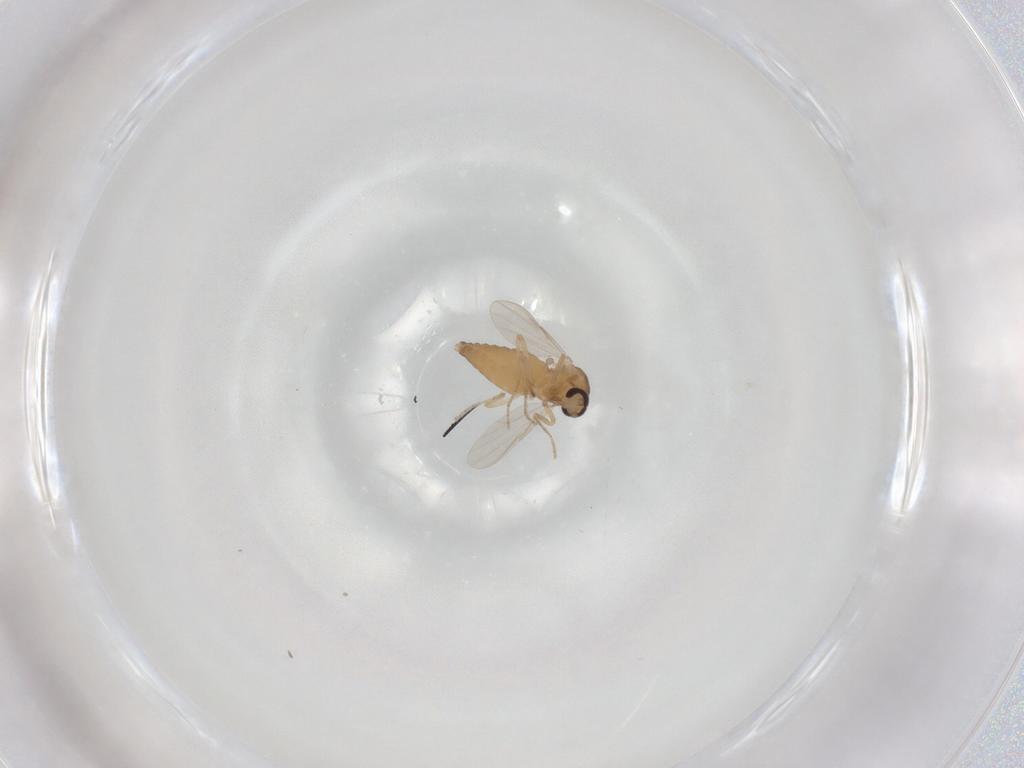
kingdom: Animalia
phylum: Arthropoda
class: Insecta
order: Diptera
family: Ceratopogonidae
